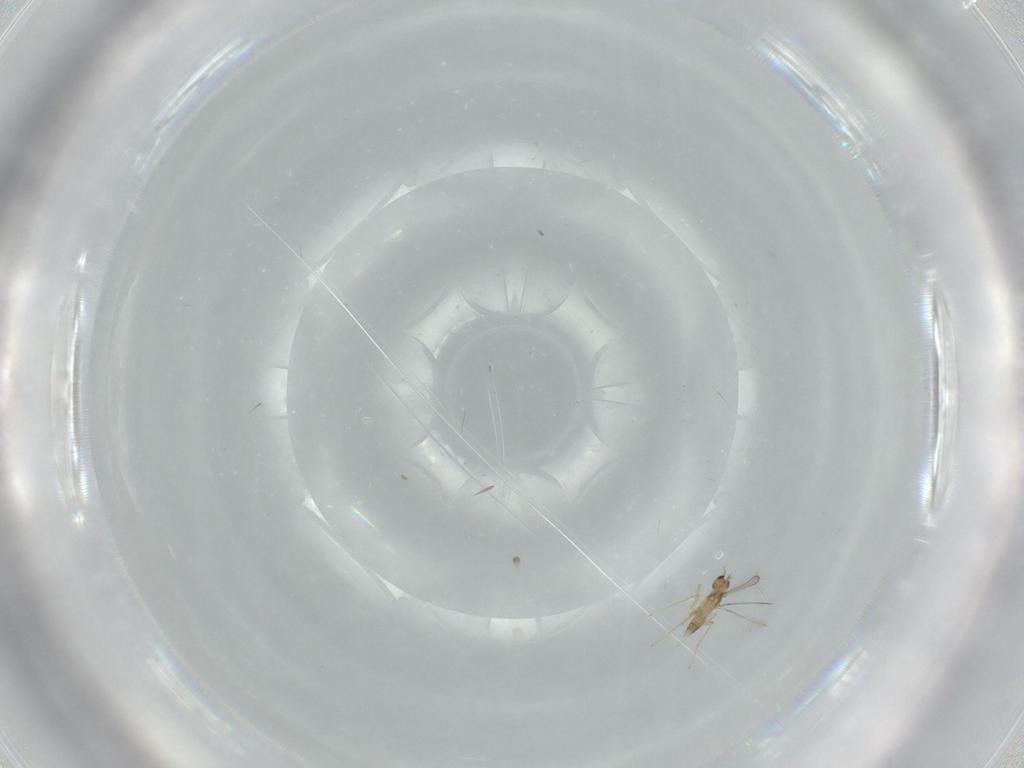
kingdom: Animalia
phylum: Arthropoda
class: Insecta
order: Hymenoptera
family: Mymaridae
